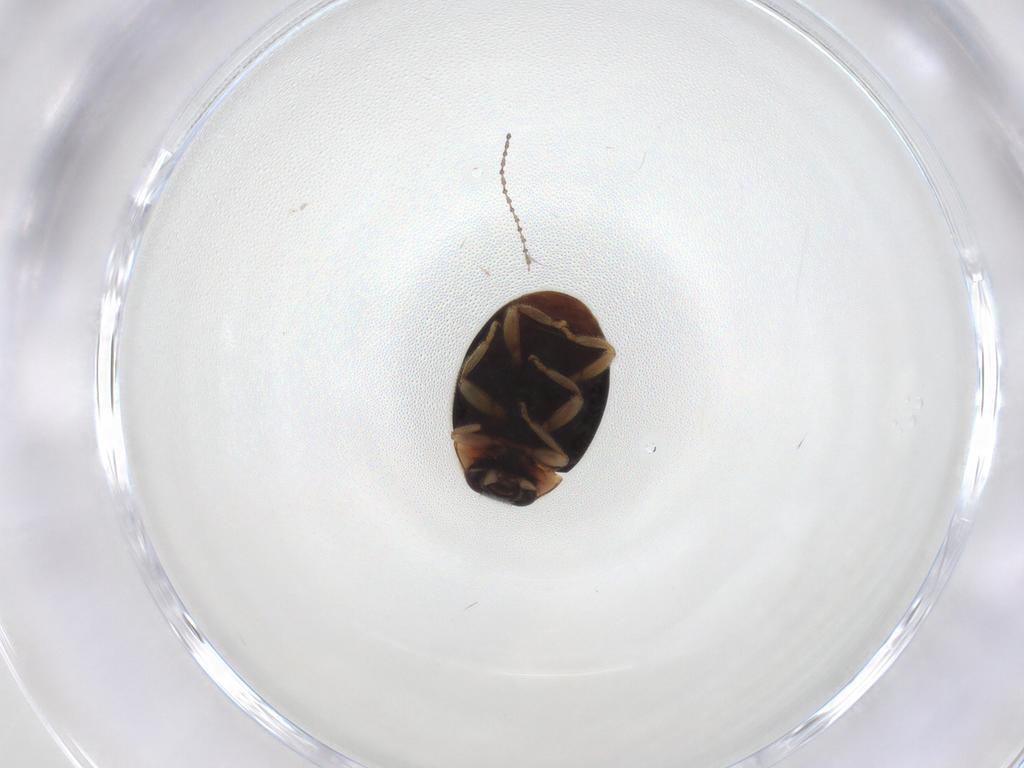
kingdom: Animalia
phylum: Arthropoda
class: Insecta
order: Coleoptera
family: Coccinellidae
